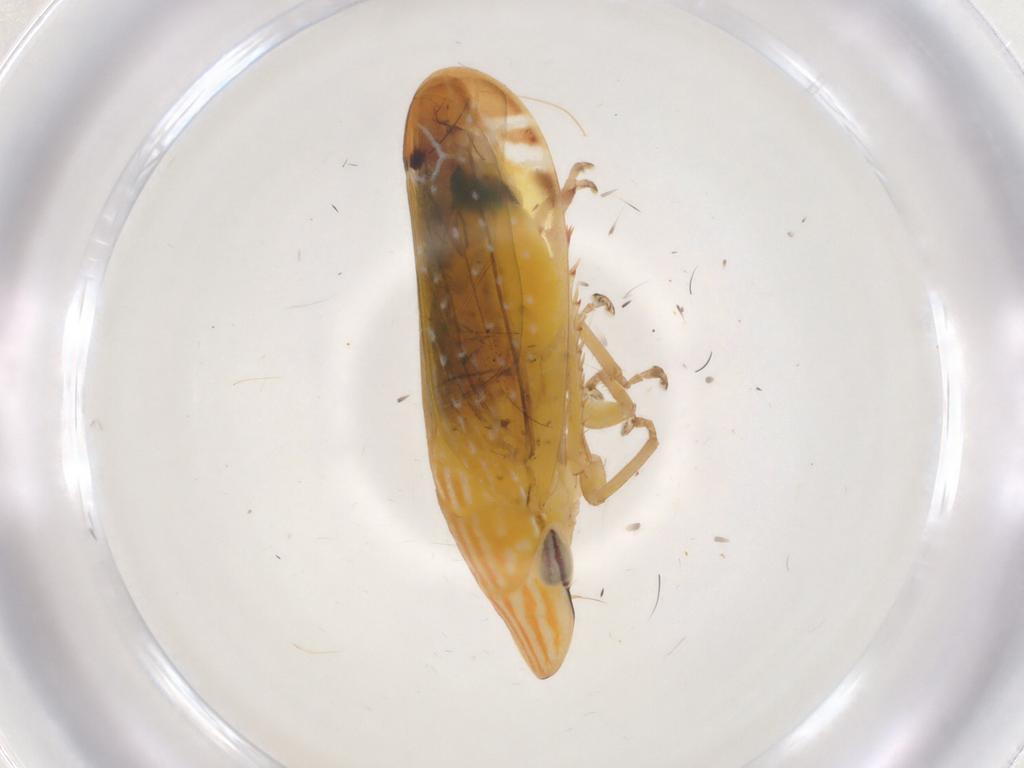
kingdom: Animalia
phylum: Arthropoda
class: Insecta
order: Hemiptera
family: Cicadellidae
